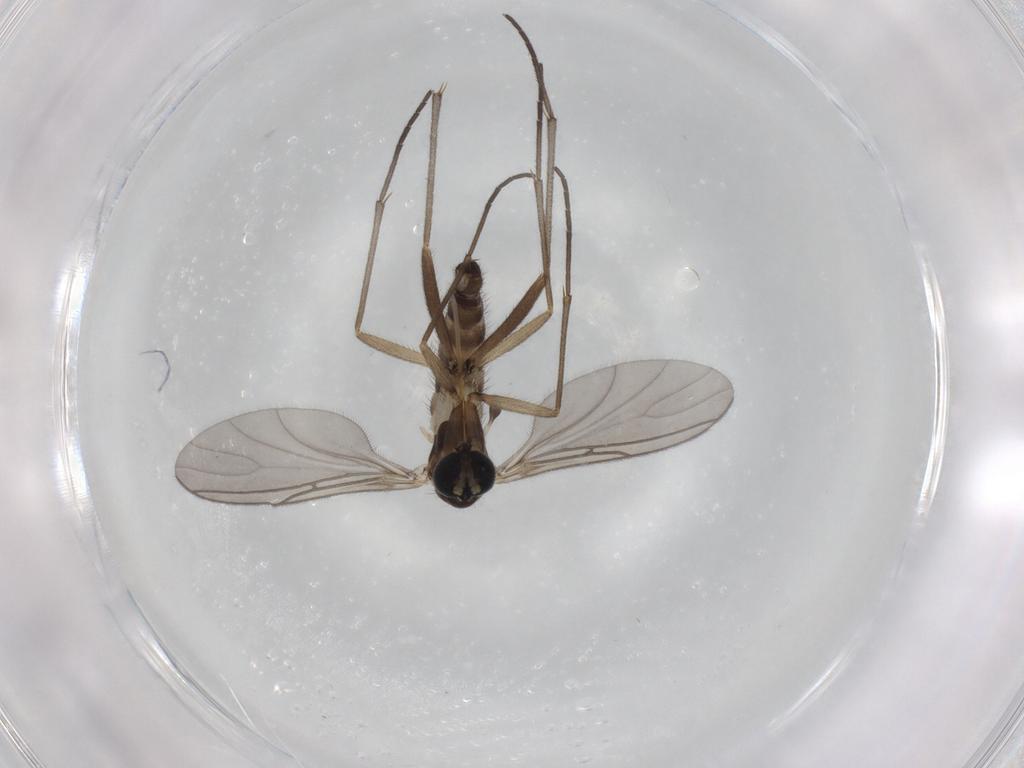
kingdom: Animalia
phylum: Arthropoda
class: Insecta
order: Diptera
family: Sciaridae
